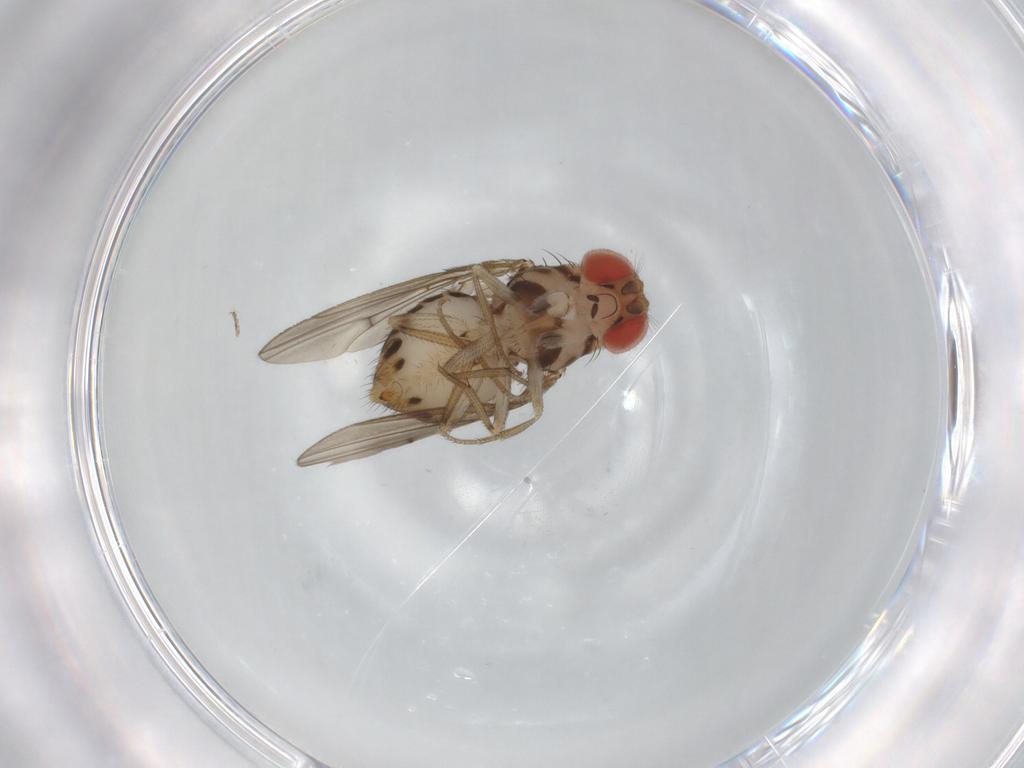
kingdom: Animalia
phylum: Arthropoda
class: Insecta
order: Diptera
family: Drosophilidae
